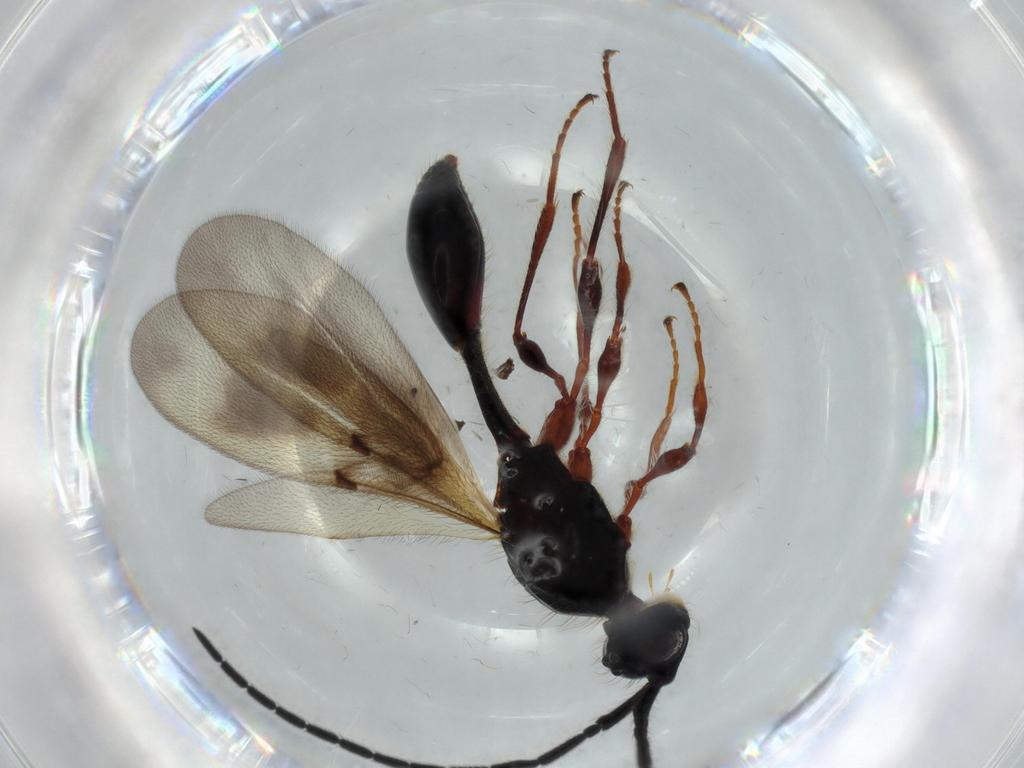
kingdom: Animalia
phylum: Arthropoda
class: Insecta
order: Hymenoptera
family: Diapriidae
